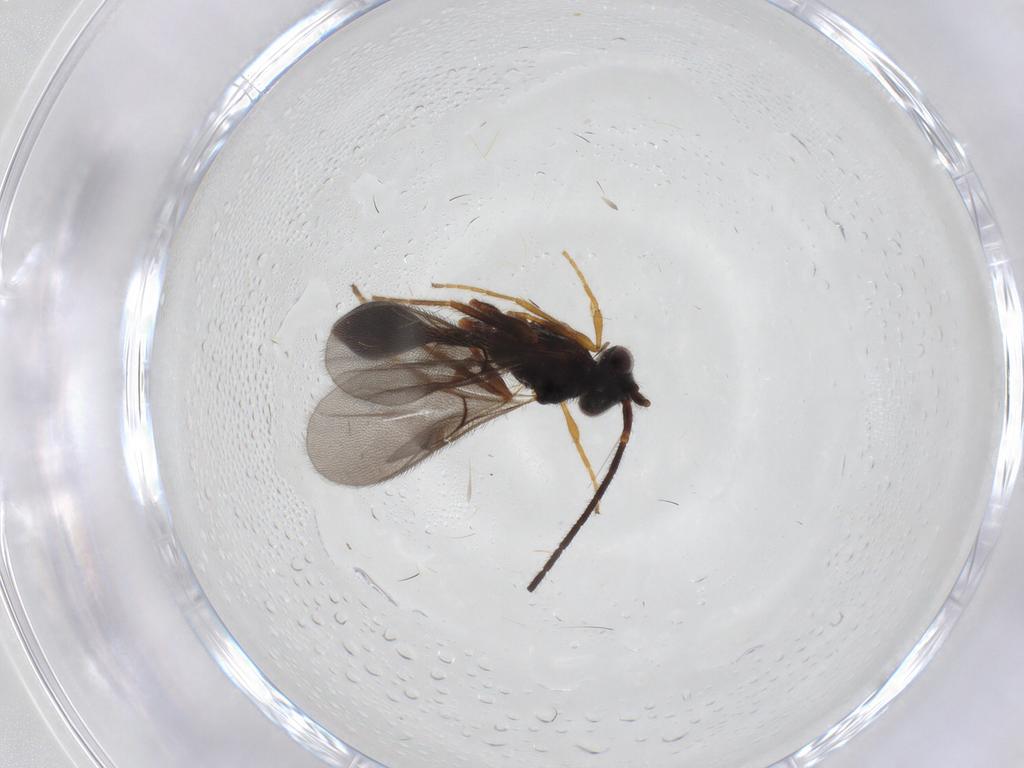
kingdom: Animalia
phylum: Arthropoda
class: Insecta
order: Hymenoptera
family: Diapriidae
